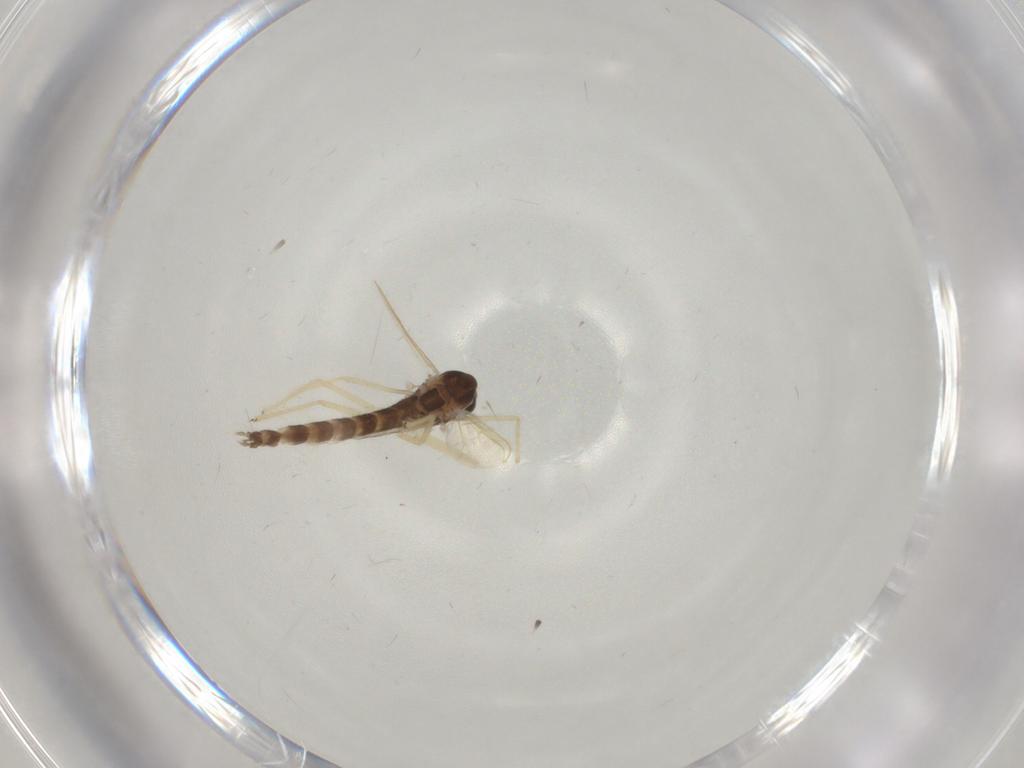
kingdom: Animalia
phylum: Arthropoda
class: Insecta
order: Diptera
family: Chironomidae
